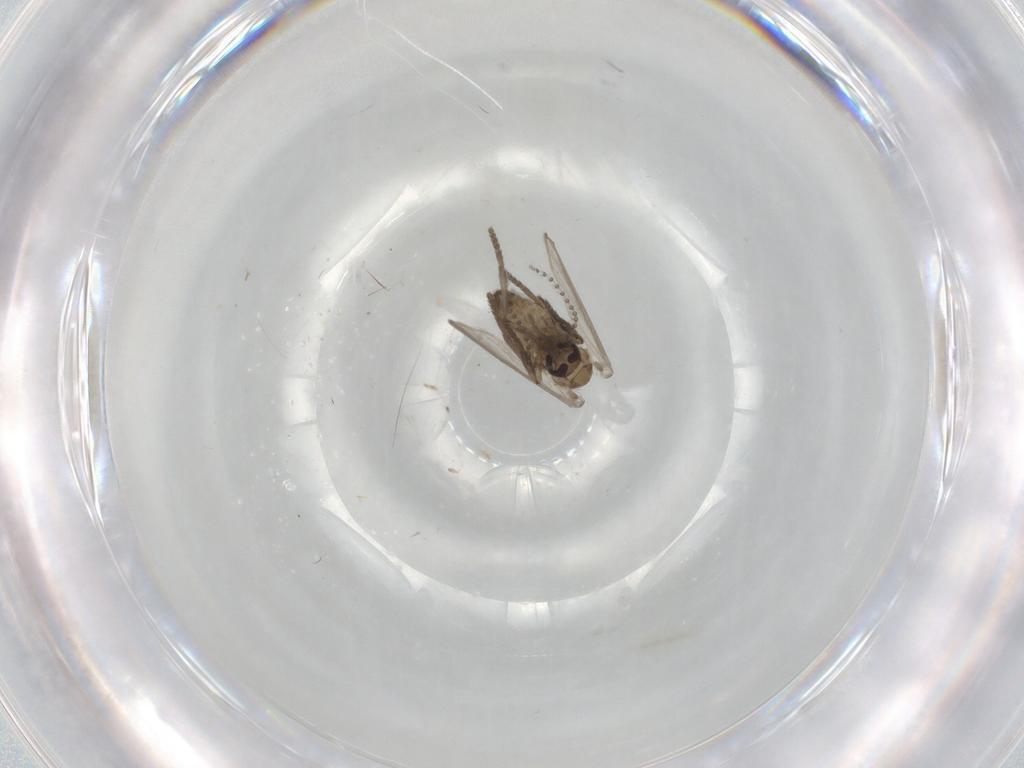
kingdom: Animalia
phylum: Arthropoda
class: Insecta
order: Diptera
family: Psychodidae
